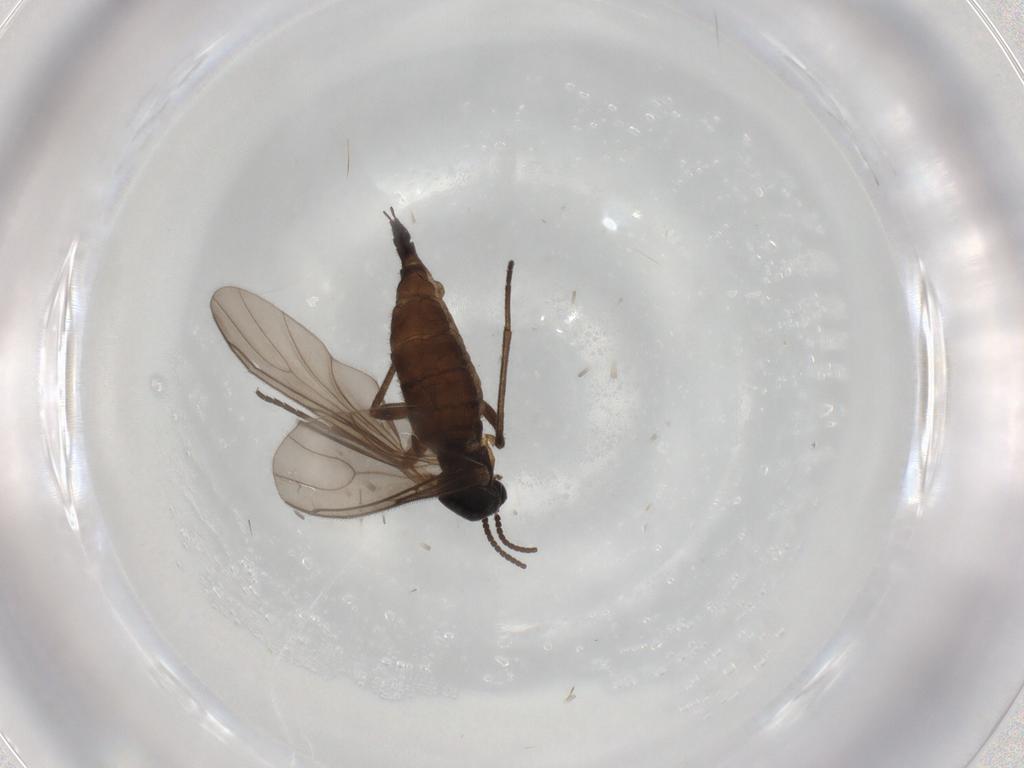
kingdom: Animalia
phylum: Arthropoda
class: Insecta
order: Diptera
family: Sciaridae
